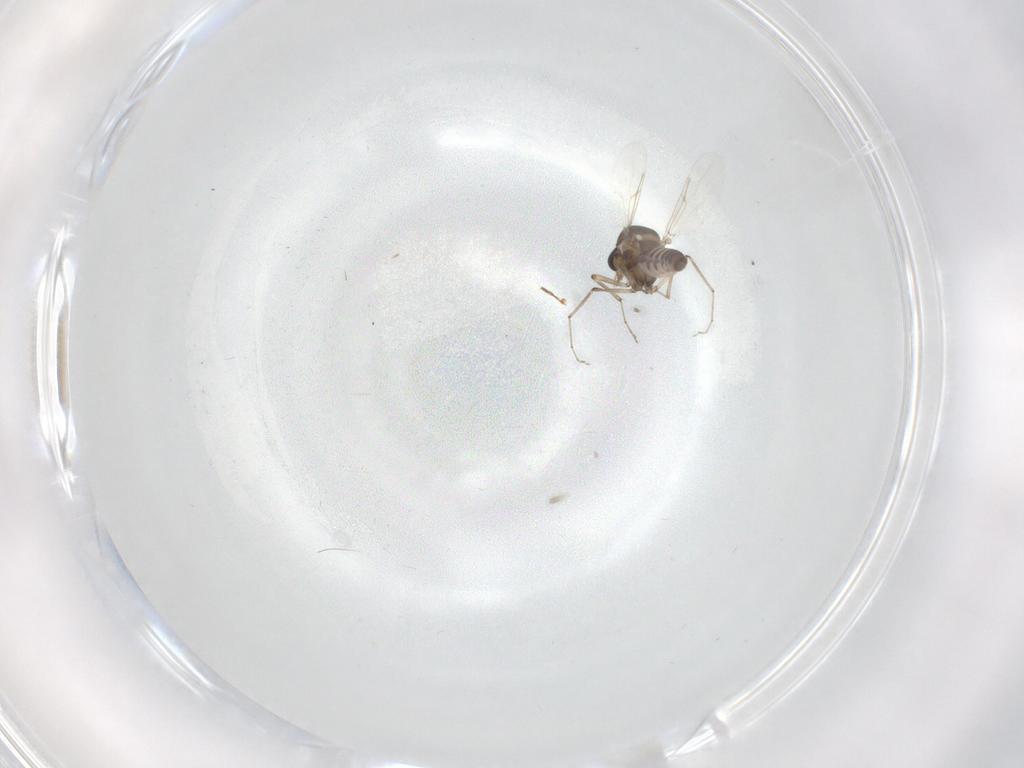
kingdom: Animalia
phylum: Arthropoda
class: Insecta
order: Diptera
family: Ceratopogonidae
